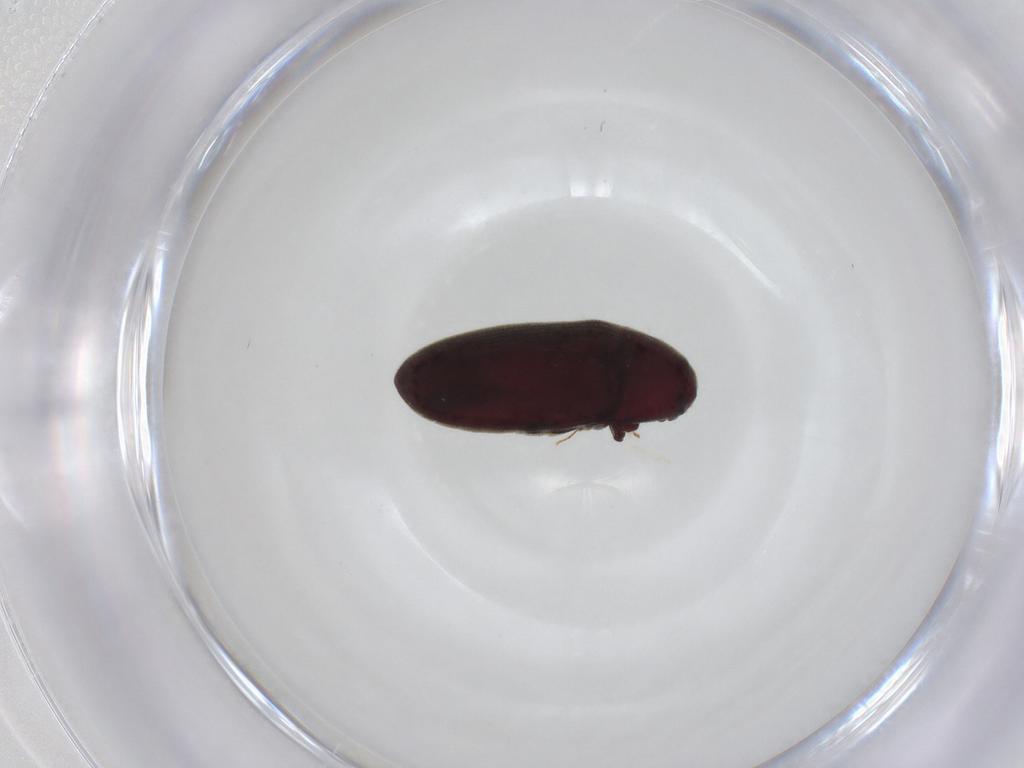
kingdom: Animalia
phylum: Arthropoda
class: Insecta
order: Coleoptera
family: Throscidae
